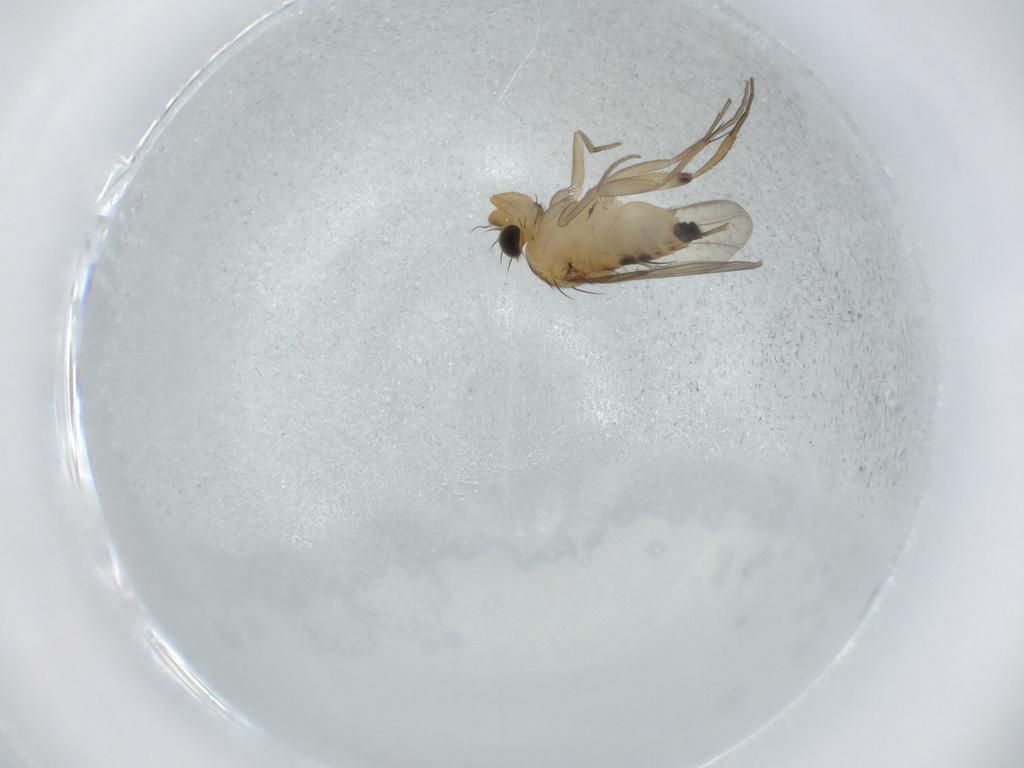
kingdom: Animalia
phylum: Arthropoda
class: Insecta
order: Diptera
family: Phoridae
